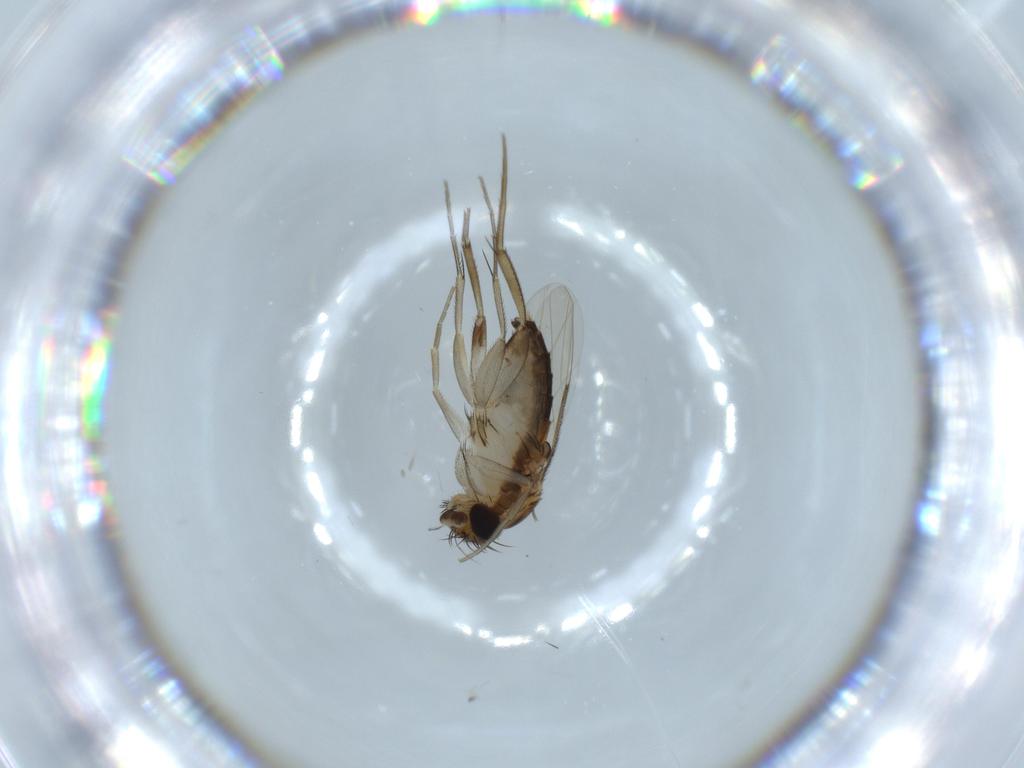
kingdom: Animalia
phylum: Arthropoda
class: Insecta
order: Diptera
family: Phoridae
